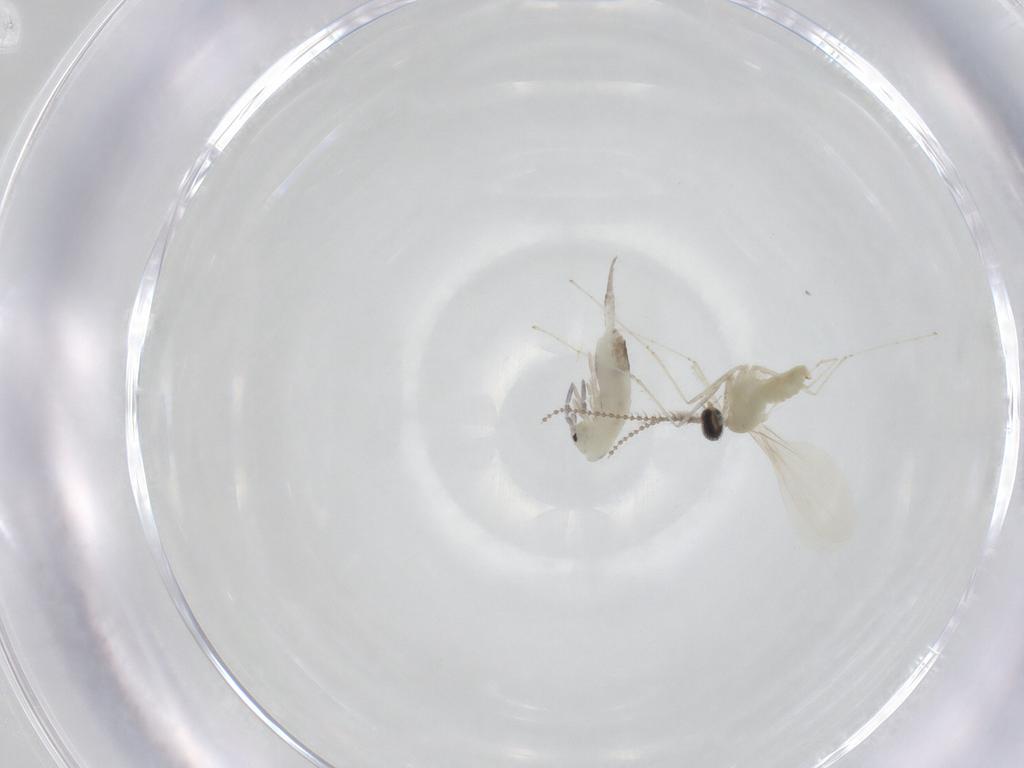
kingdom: Animalia
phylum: Arthropoda
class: Insecta
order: Diptera
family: Cecidomyiidae
